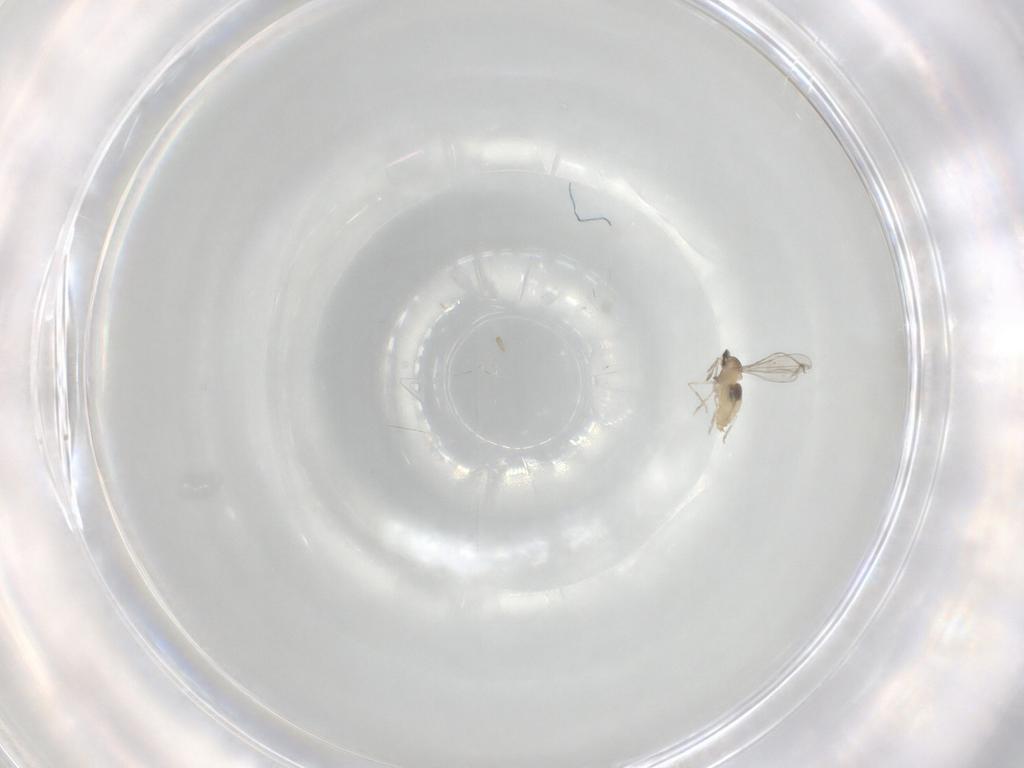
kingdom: Animalia
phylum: Arthropoda
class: Insecta
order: Diptera
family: Cecidomyiidae
